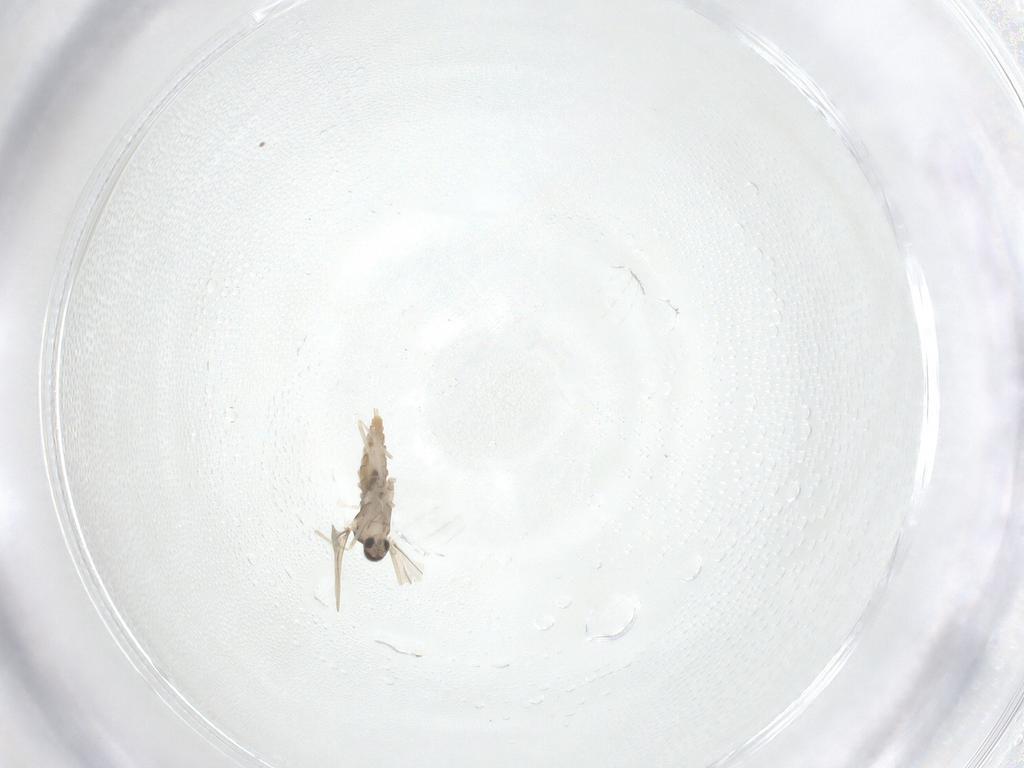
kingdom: Animalia
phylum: Arthropoda
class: Insecta
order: Diptera
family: Cecidomyiidae
